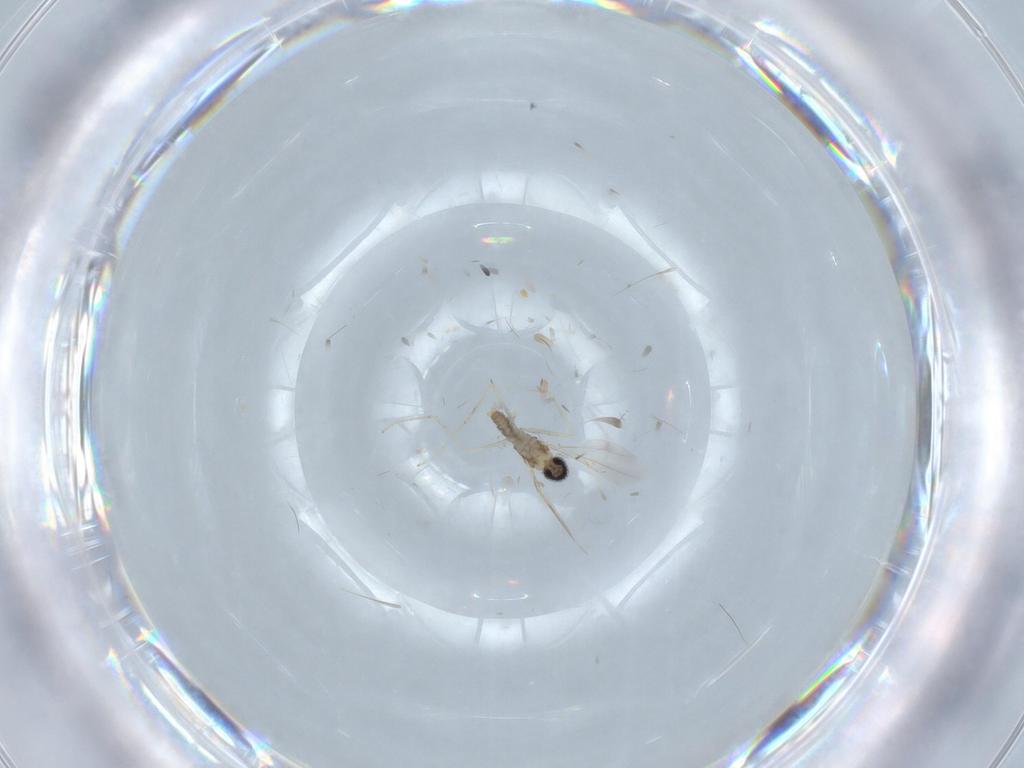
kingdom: Animalia
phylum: Arthropoda
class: Insecta
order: Diptera
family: Cecidomyiidae
